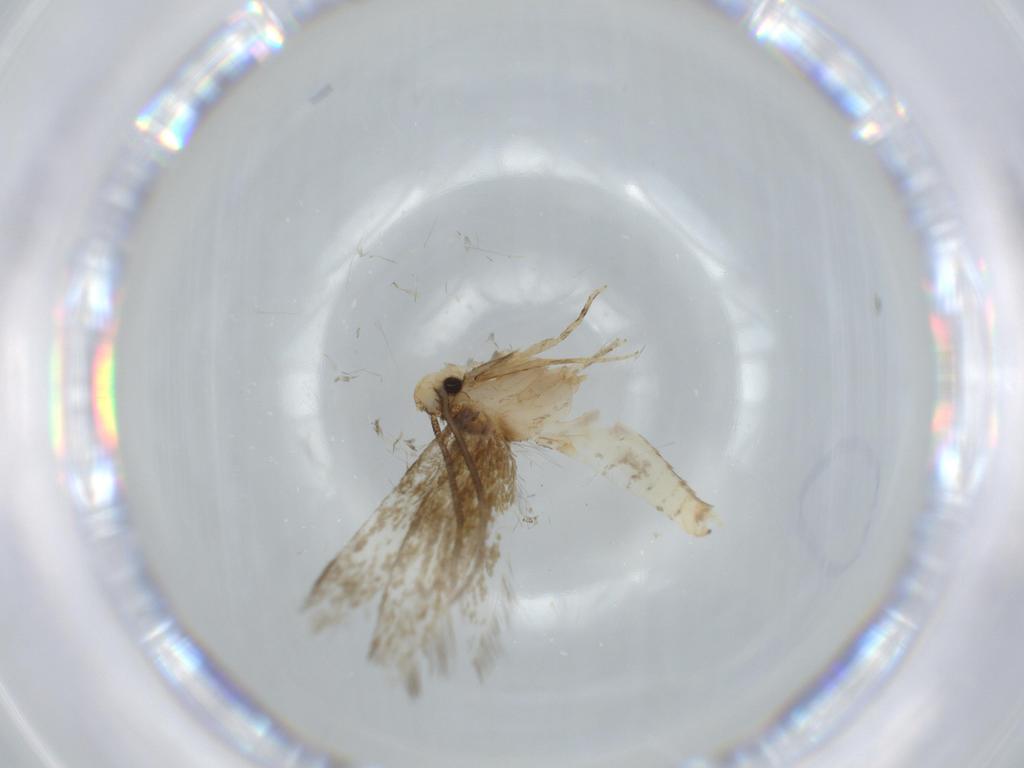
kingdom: Animalia
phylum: Arthropoda
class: Insecta
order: Lepidoptera
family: Tineidae
